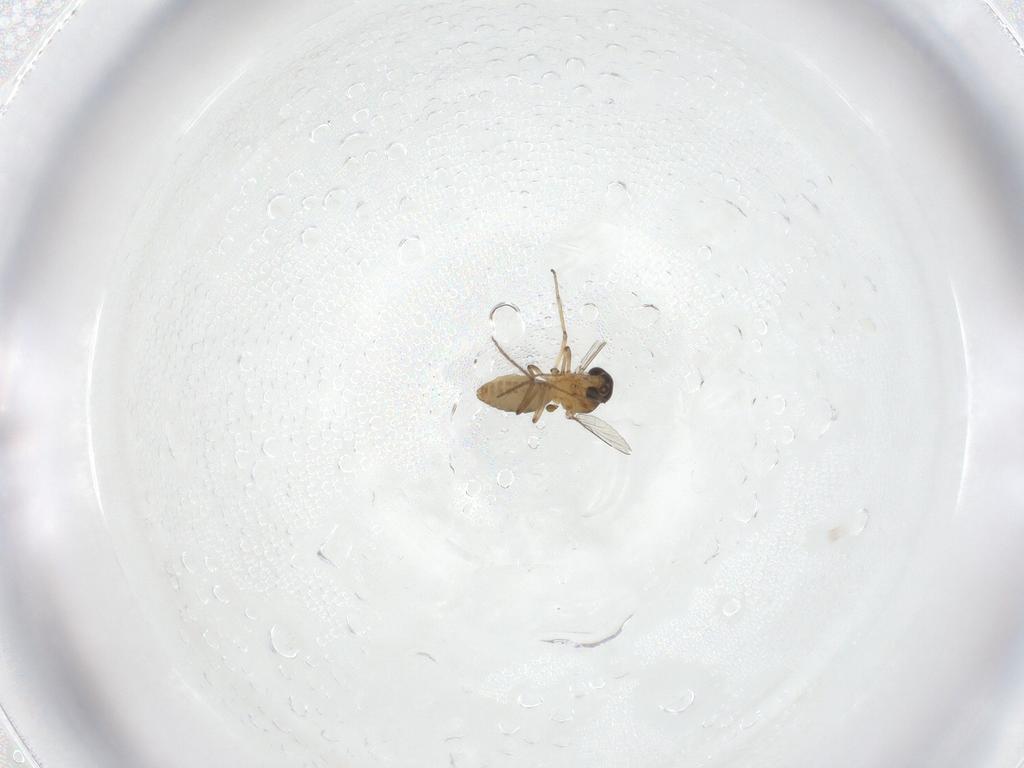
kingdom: Animalia
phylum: Arthropoda
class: Insecta
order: Diptera
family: Ceratopogonidae
